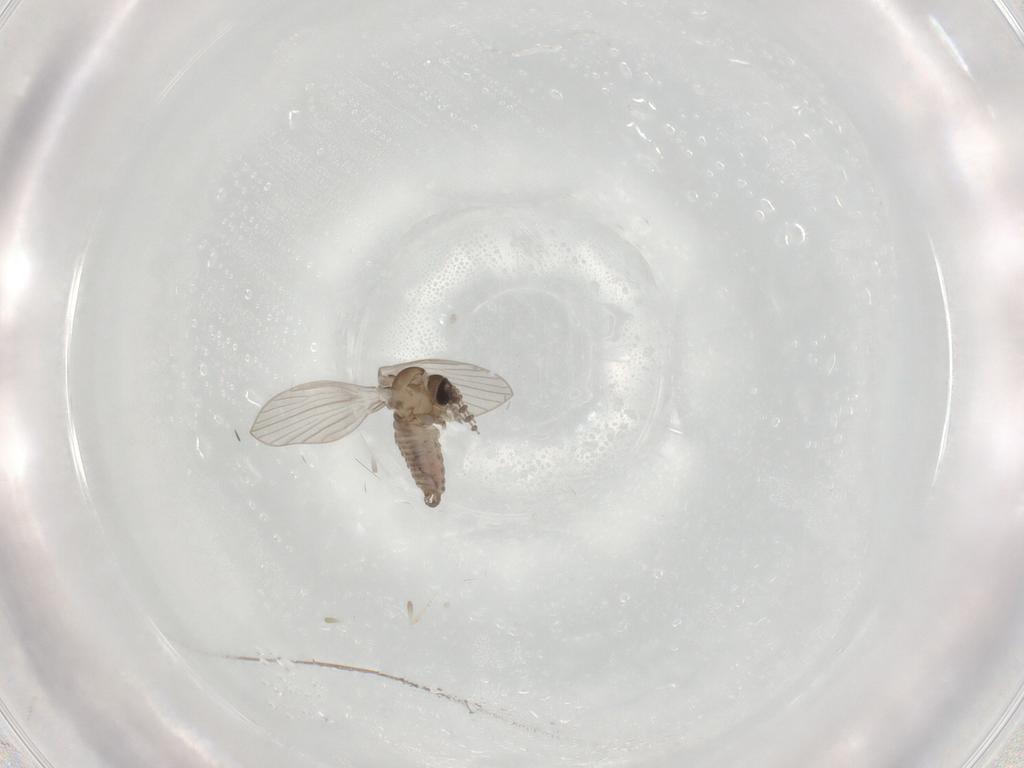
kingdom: Animalia
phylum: Arthropoda
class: Insecta
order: Diptera
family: Psychodidae
